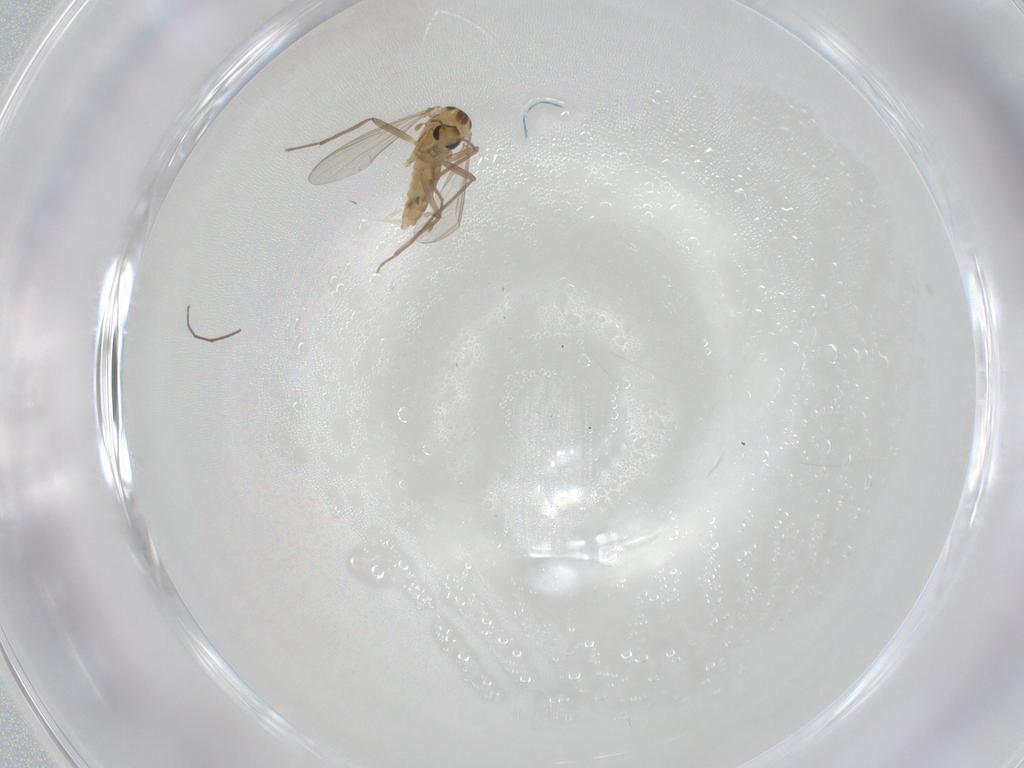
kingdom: Animalia
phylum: Arthropoda
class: Insecta
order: Diptera
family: Chironomidae
